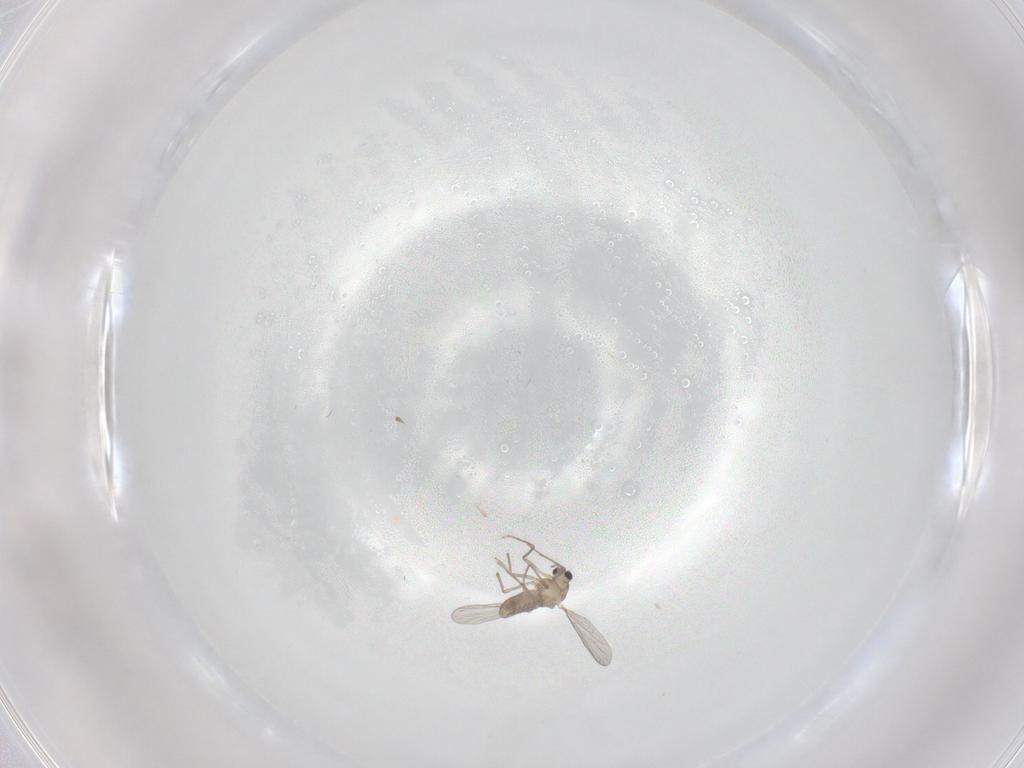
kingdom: Animalia
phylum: Arthropoda
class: Insecta
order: Diptera
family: Chironomidae
